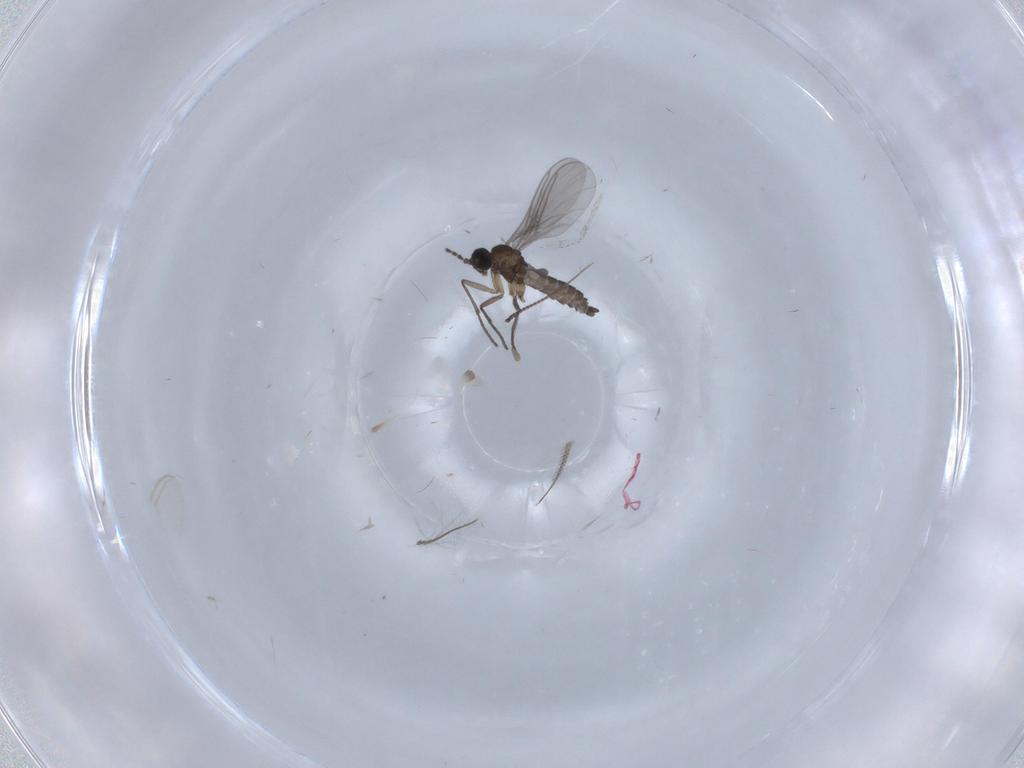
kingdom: Animalia
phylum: Arthropoda
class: Insecta
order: Diptera
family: Sciaridae
